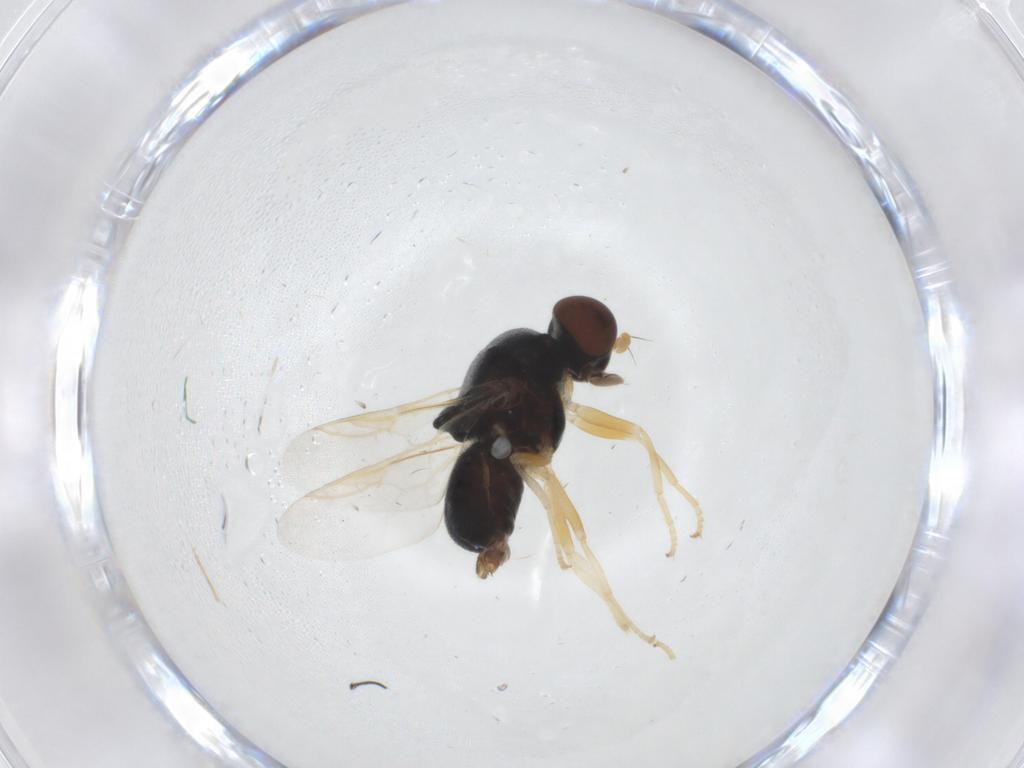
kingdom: Animalia
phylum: Arthropoda
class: Insecta
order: Diptera
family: Stratiomyidae
